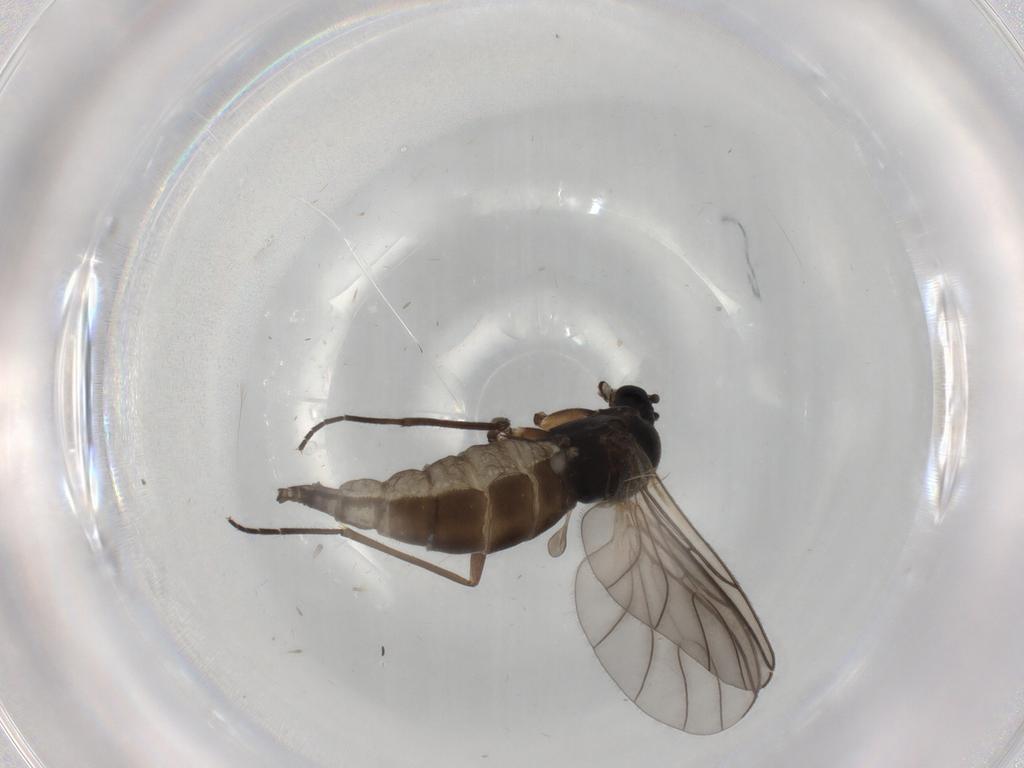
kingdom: Animalia
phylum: Arthropoda
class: Insecta
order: Diptera
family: Sciaridae
